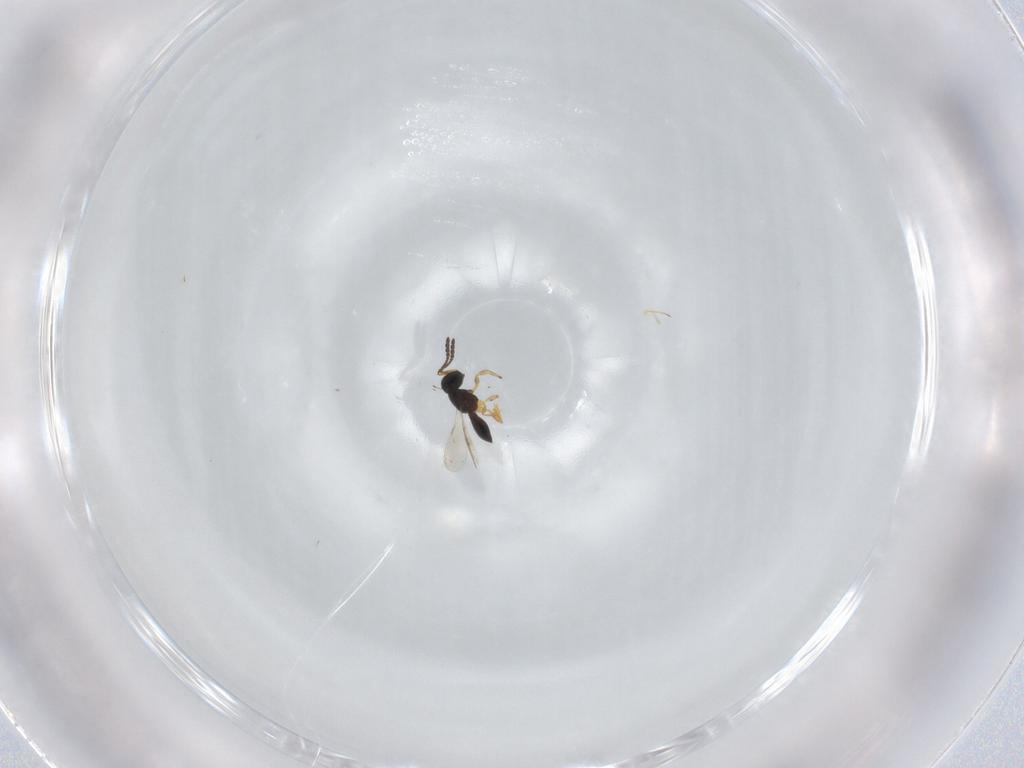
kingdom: Animalia
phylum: Arthropoda
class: Insecta
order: Hymenoptera
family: Scelionidae
